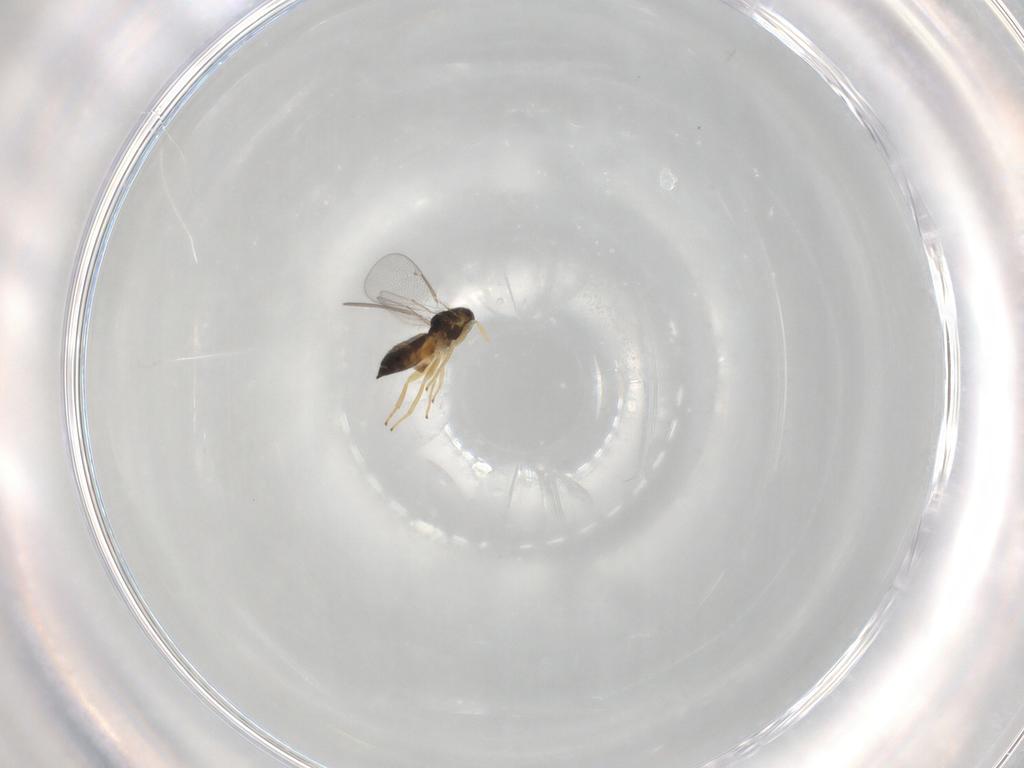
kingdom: Animalia
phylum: Arthropoda
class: Insecta
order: Hymenoptera
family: Eulophidae
